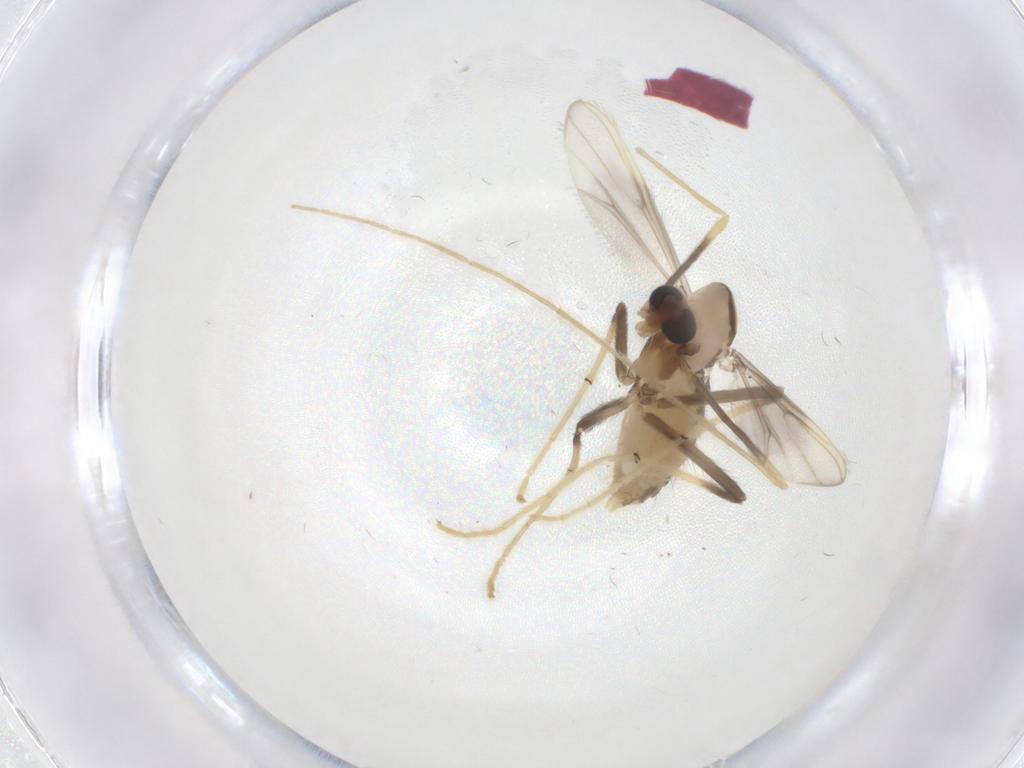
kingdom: Animalia
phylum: Arthropoda
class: Insecta
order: Diptera
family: Chironomidae
